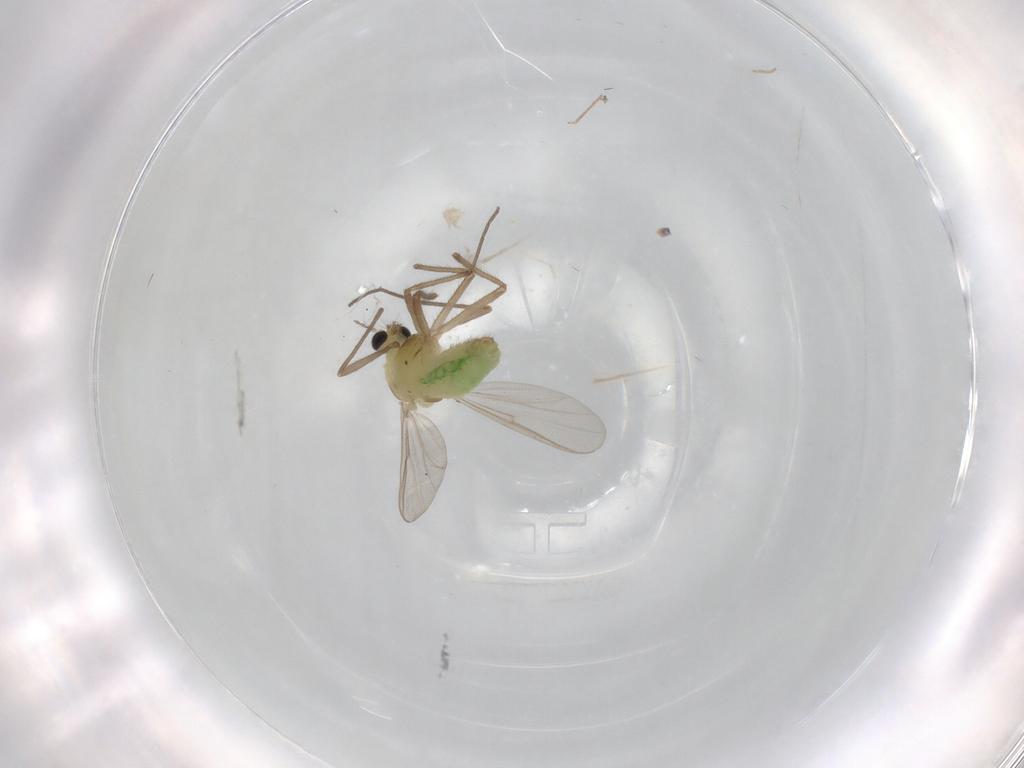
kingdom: Animalia
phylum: Arthropoda
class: Insecta
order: Diptera
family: Chironomidae
